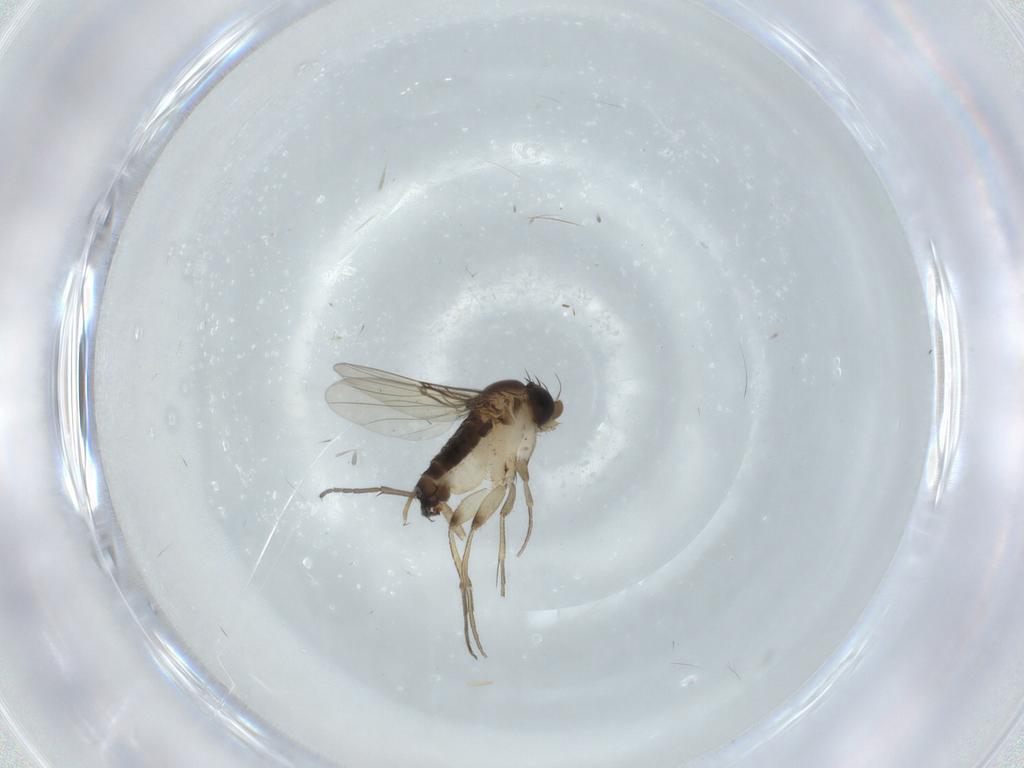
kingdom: Animalia
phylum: Arthropoda
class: Insecta
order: Diptera
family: Phoridae
